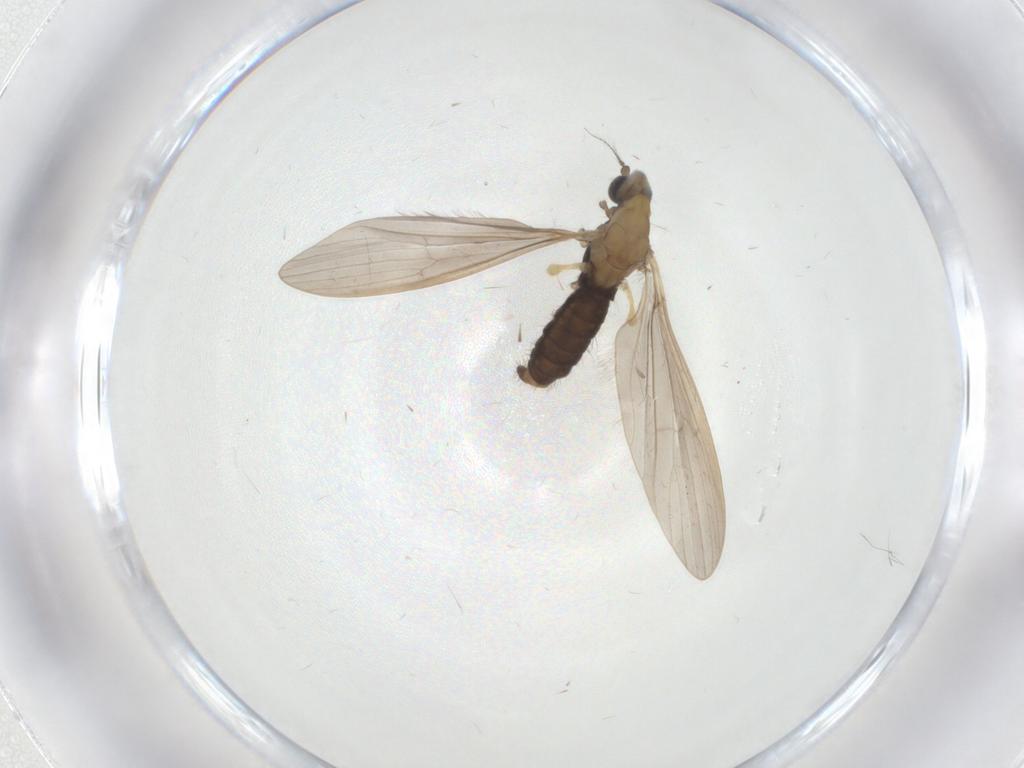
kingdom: Animalia
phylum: Arthropoda
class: Insecta
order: Diptera
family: Limoniidae
